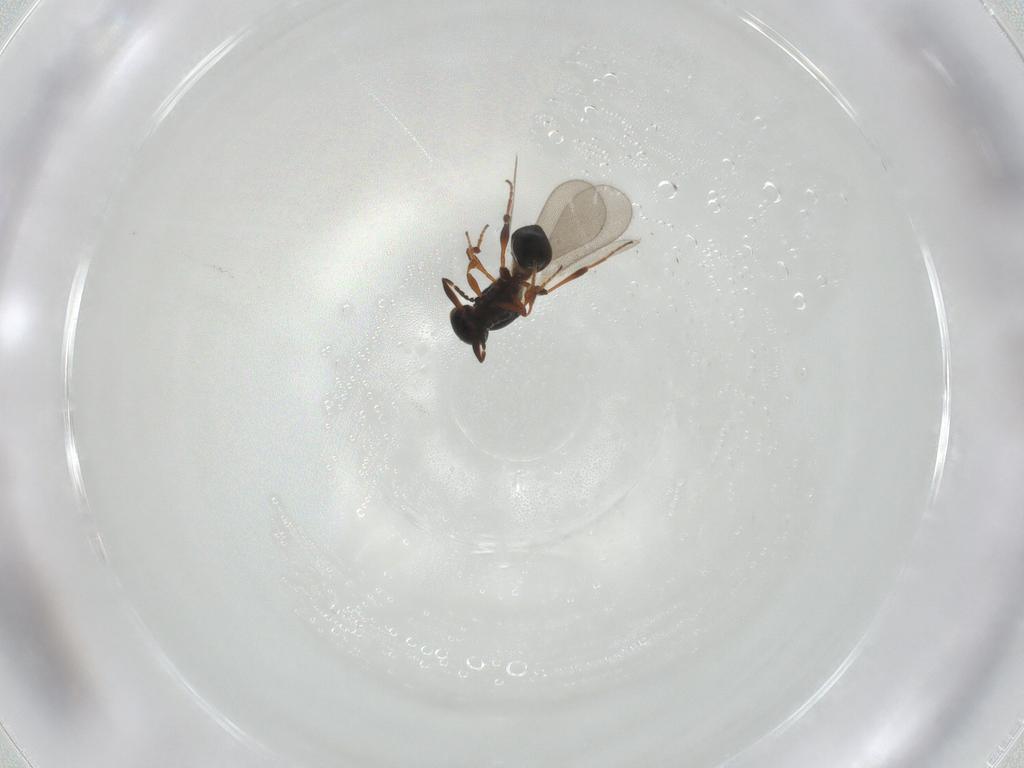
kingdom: Animalia
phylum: Arthropoda
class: Insecta
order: Hymenoptera
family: Platygastridae
